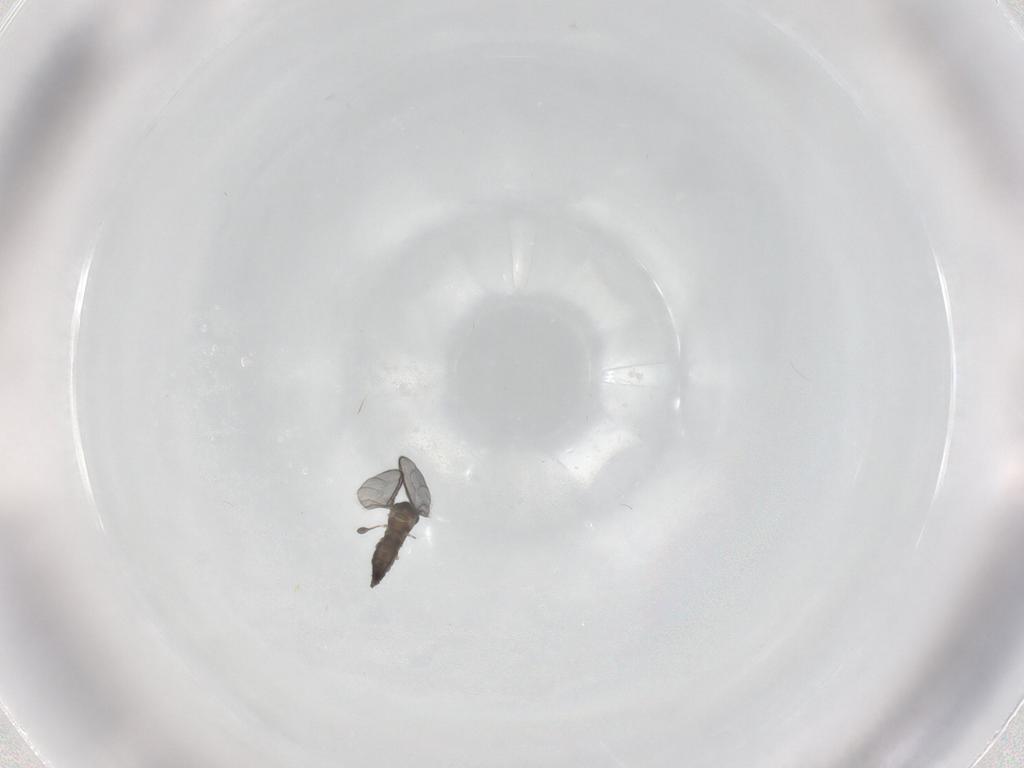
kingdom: Animalia
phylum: Arthropoda
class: Insecta
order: Diptera
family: Sciaridae
